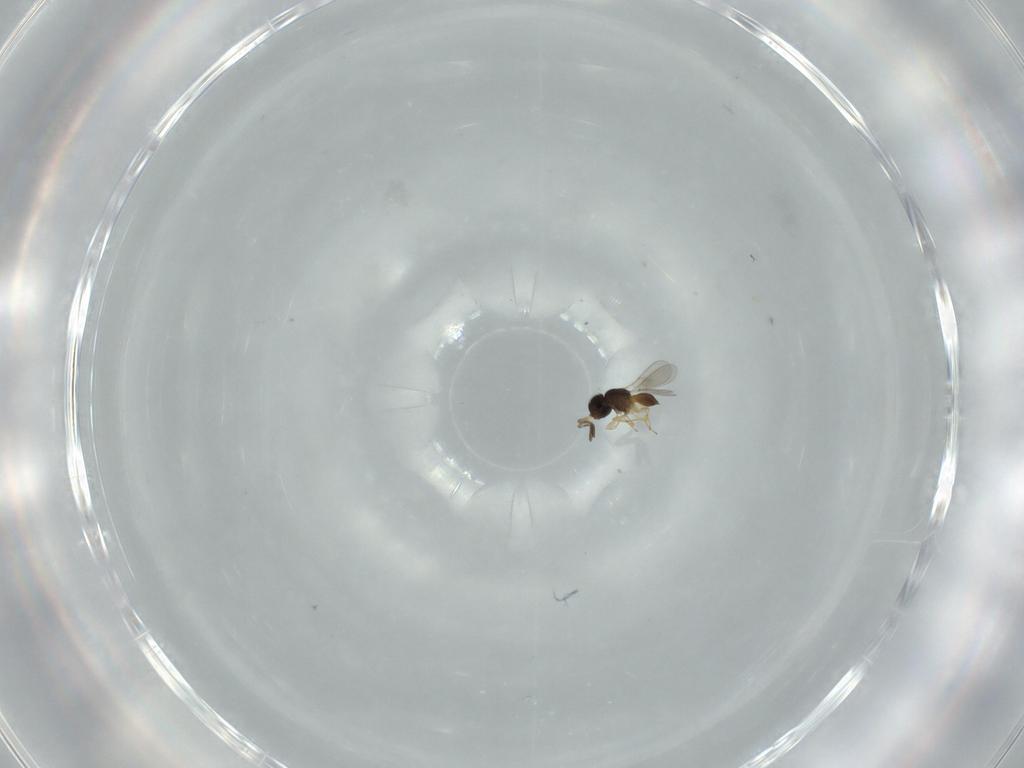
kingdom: Animalia
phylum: Arthropoda
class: Insecta
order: Hymenoptera
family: Scelionidae
